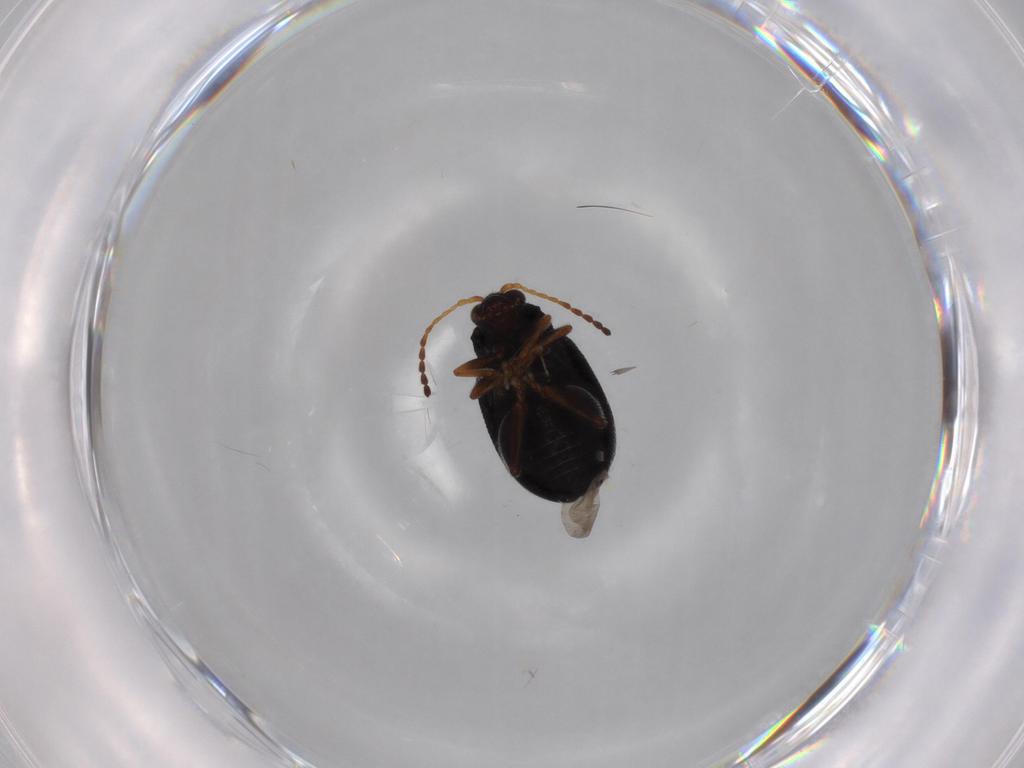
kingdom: Animalia
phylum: Arthropoda
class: Insecta
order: Coleoptera
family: Chrysomelidae
